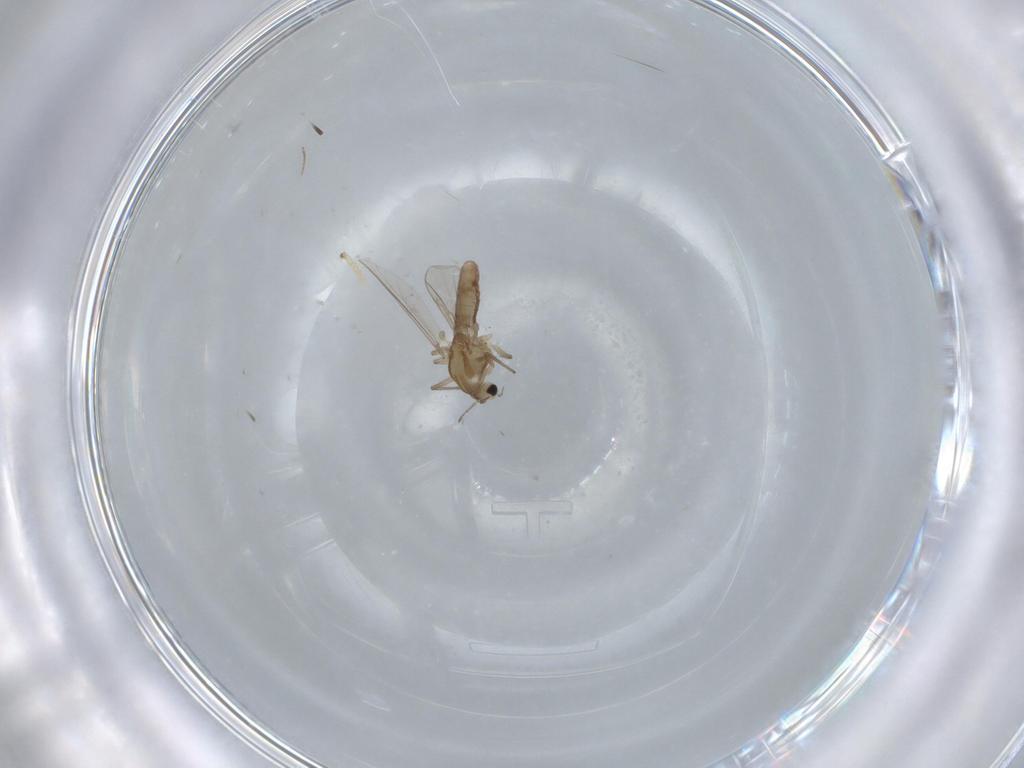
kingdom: Animalia
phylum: Arthropoda
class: Insecta
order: Diptera
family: Chironomidae
